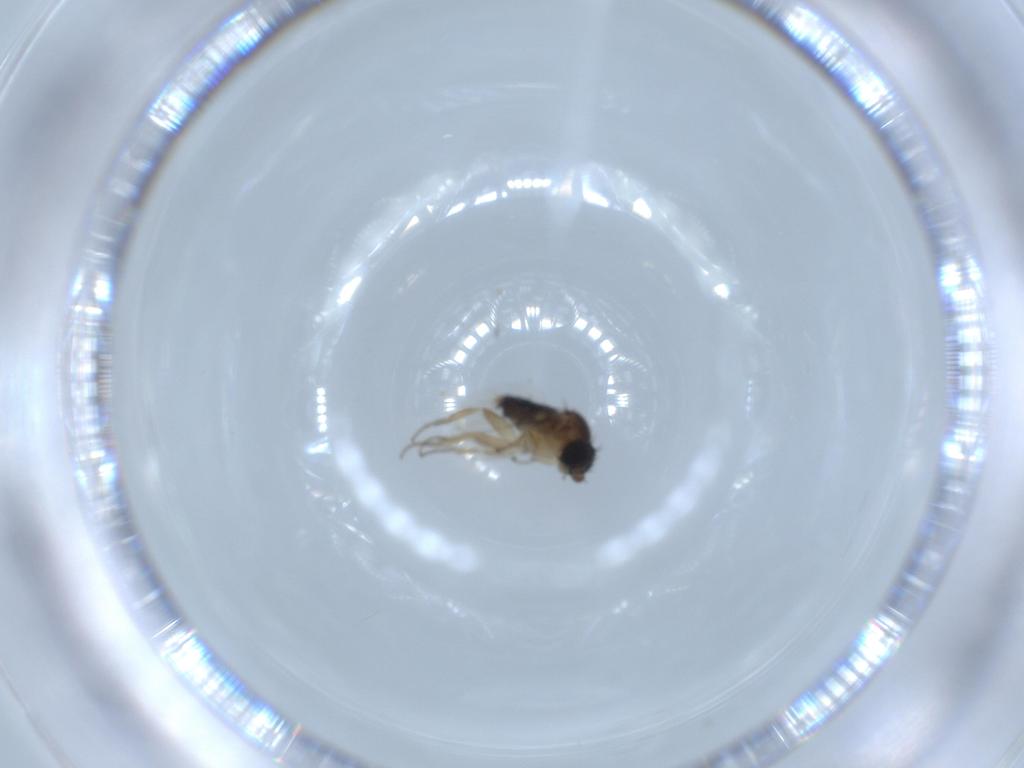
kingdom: Animalia
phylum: Arthropoda
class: Insecta
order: Diptera
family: Phoridae
